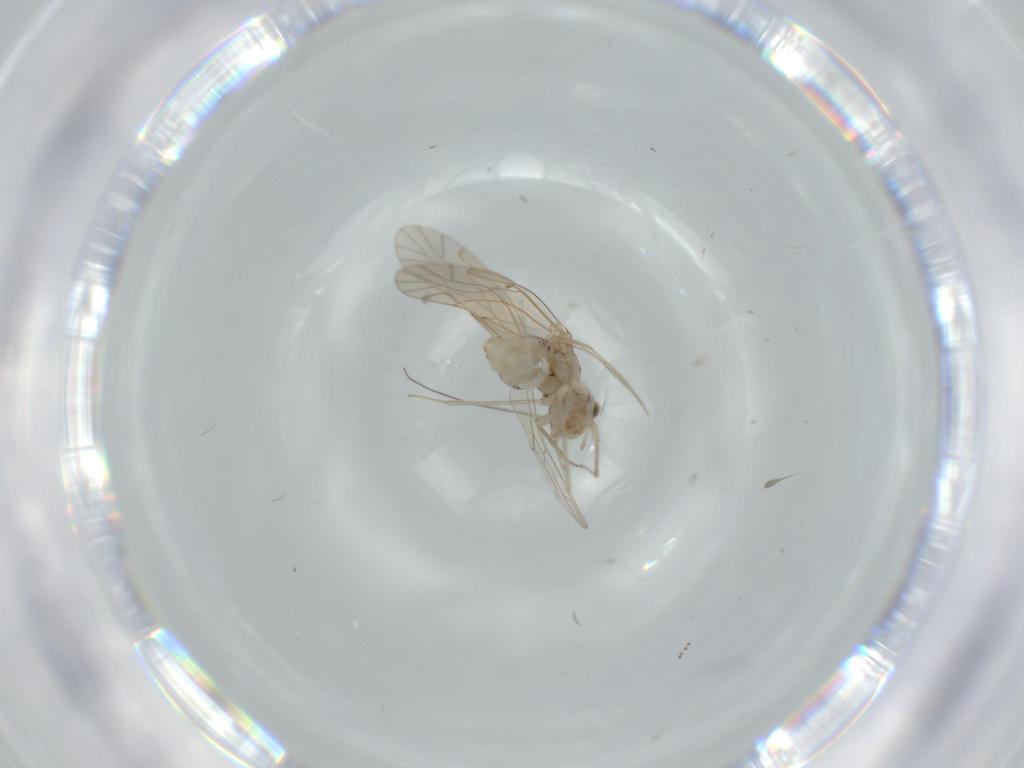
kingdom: Animalia
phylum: Arthropoda
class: Insecta
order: Psocodea
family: Lachesillidae
